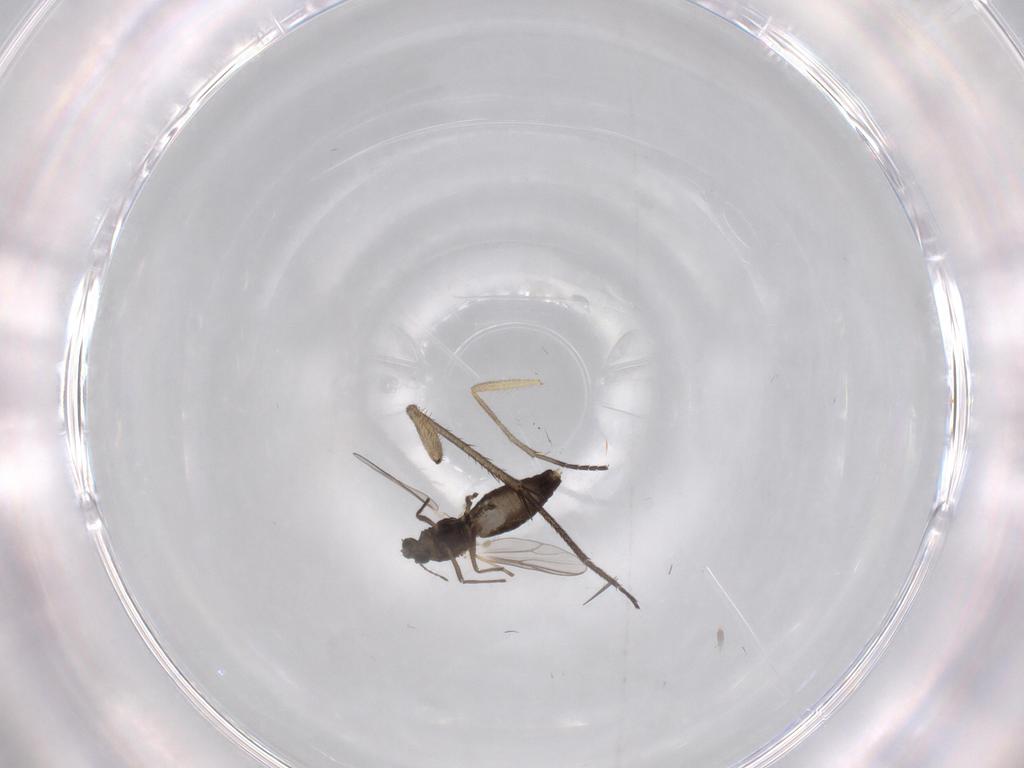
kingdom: Animalia
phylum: Arthropoda
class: Insecta
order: Diptera
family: Chironomidae
